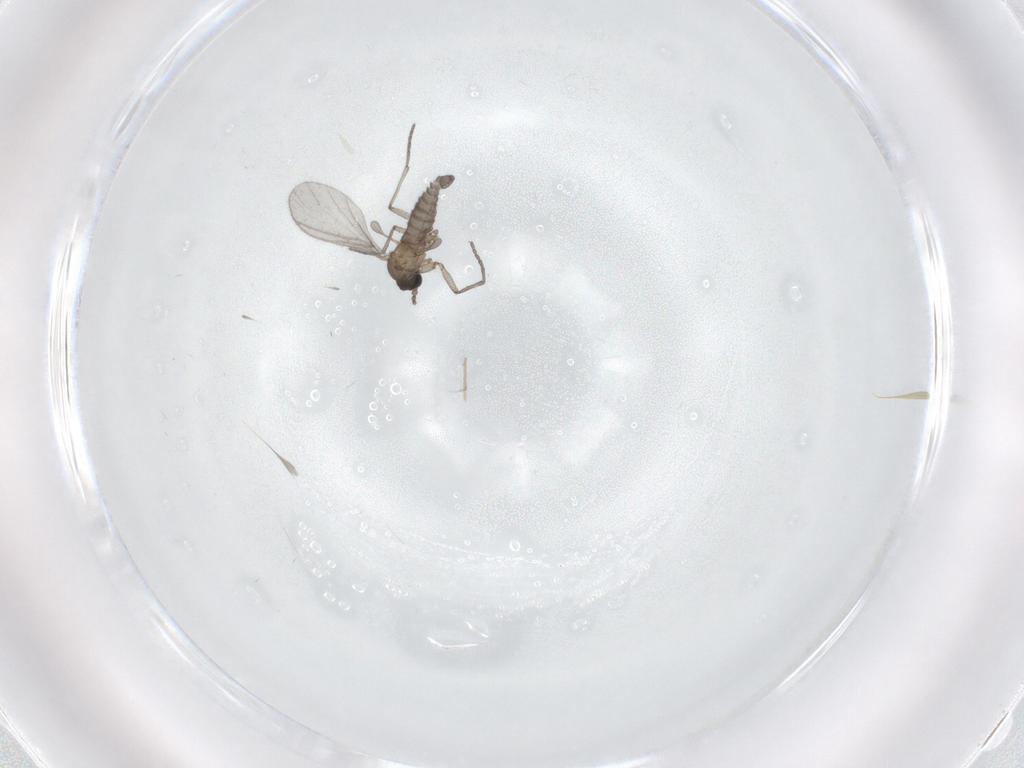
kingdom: Animalia
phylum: Arthropoda
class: Insecta
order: Diptera
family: Sciaridae
